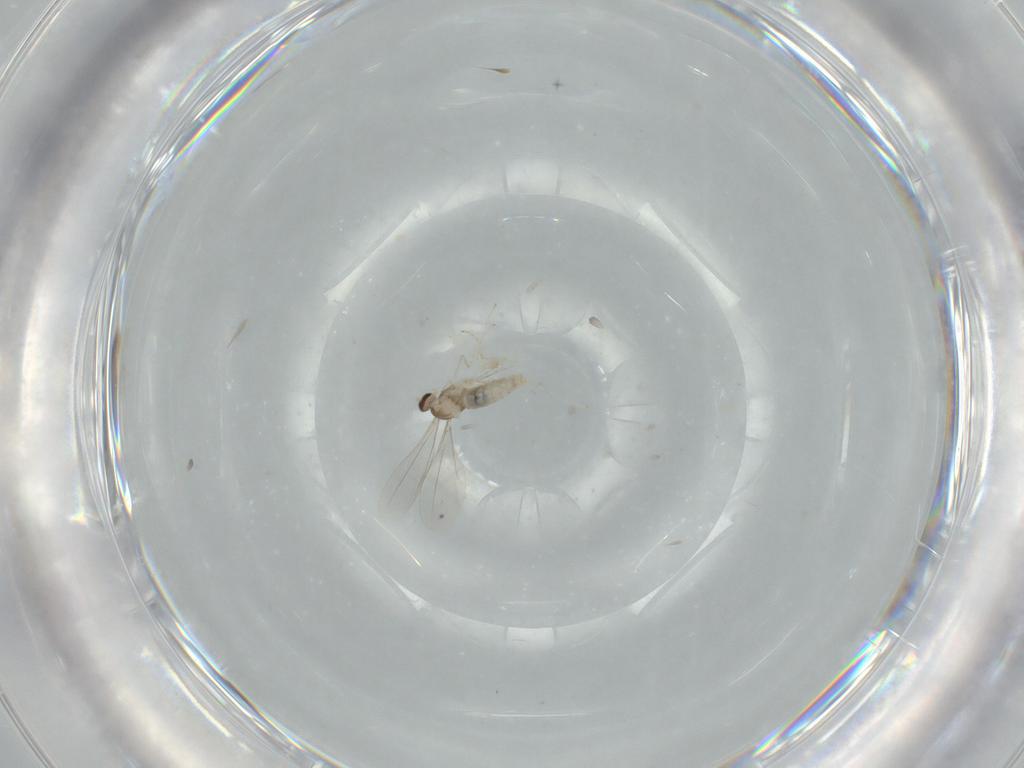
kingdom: Animalia
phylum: Arthropoda
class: Insecta
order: Diptera
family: Cecidomyiidae
